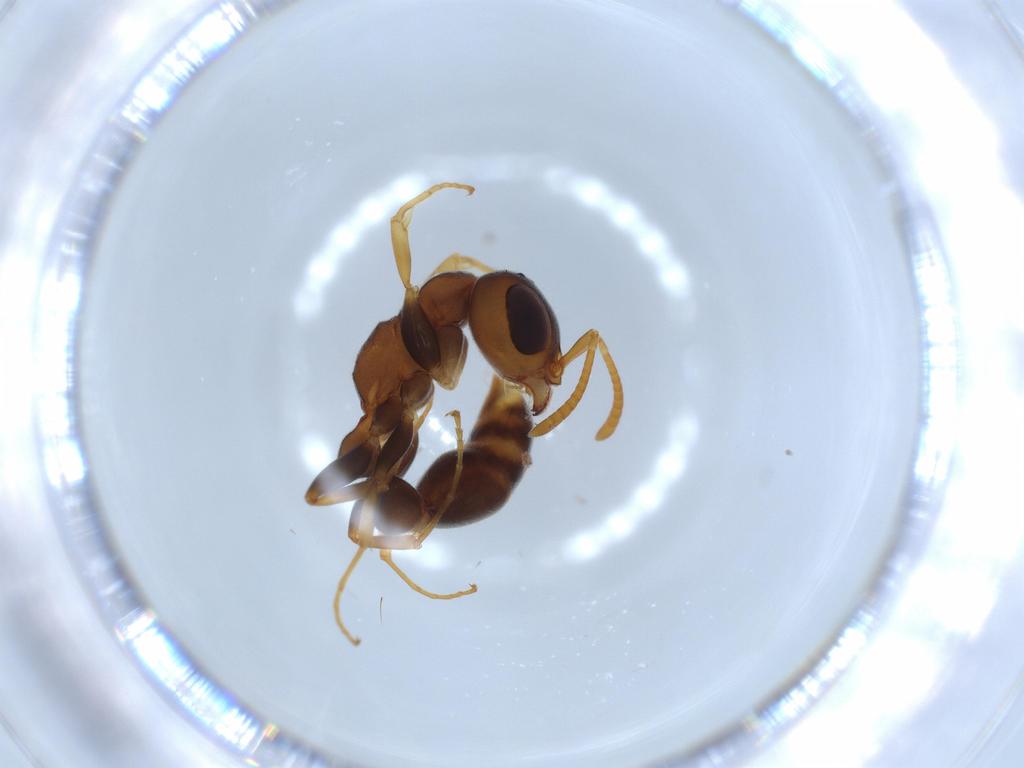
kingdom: Animalia
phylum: Arthropoda
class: Insecta
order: Hymenoptera
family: Formicidae
